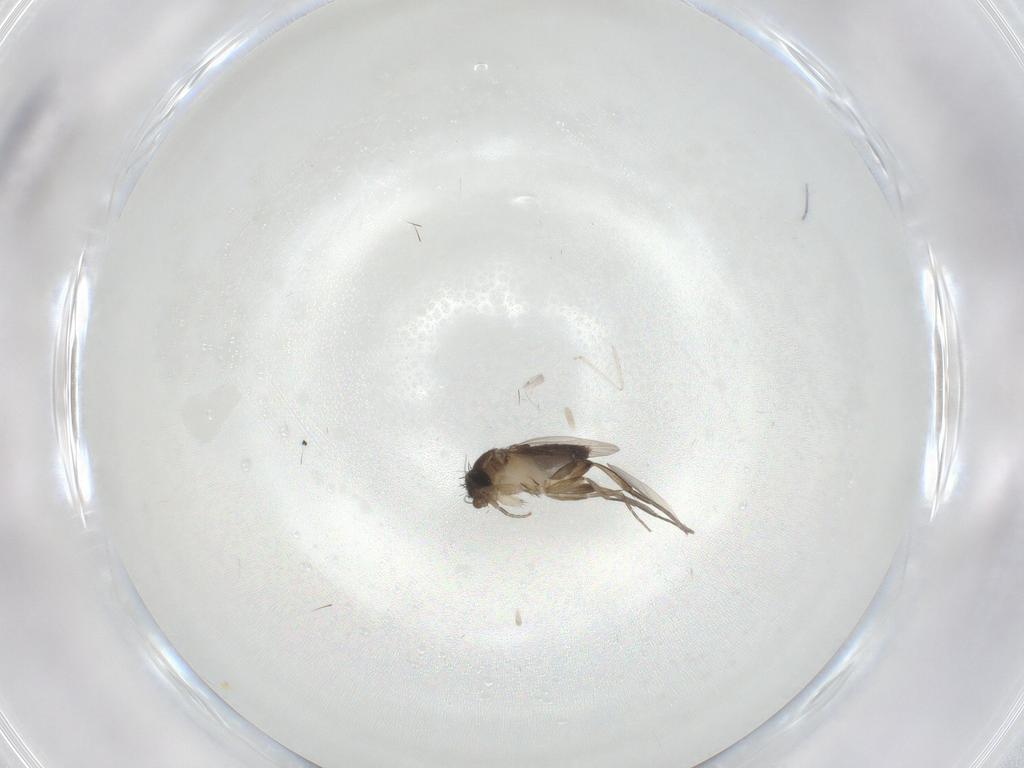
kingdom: Animalia
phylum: Arthropoda
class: Insecta
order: Diptera
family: Phoridae
